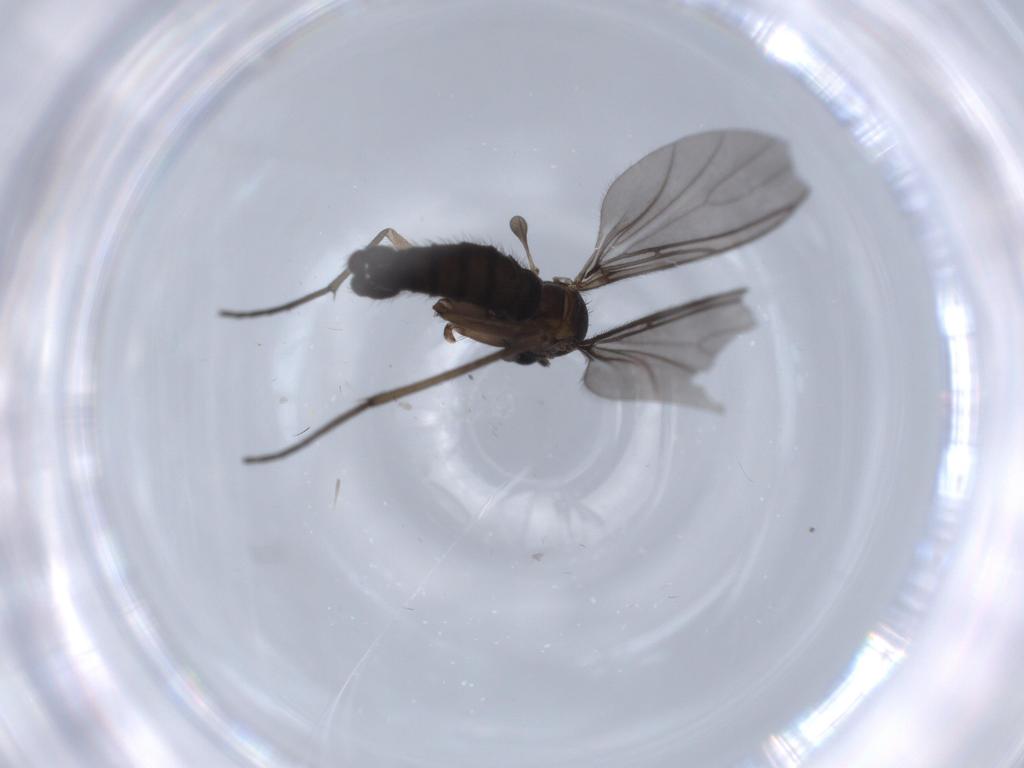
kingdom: Animalia
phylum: Arthropoda
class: Insecta
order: Diptera
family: Sciaridae
